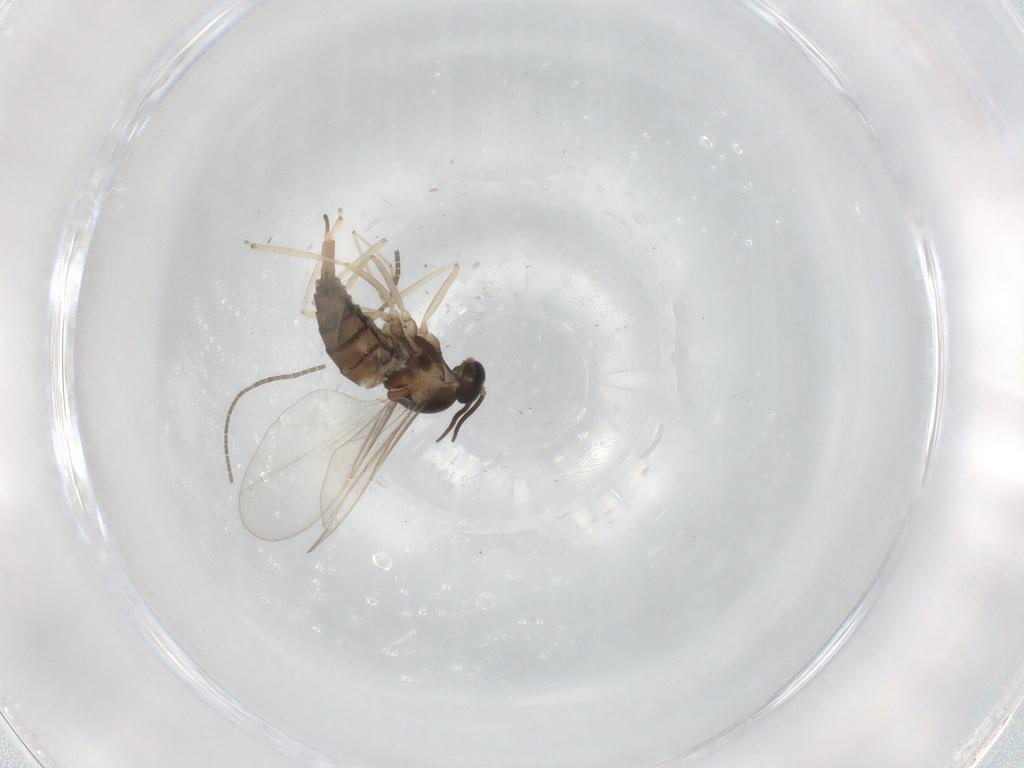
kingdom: Animalia
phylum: Arthropoda
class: Insecta
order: Diptera
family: Cecidomyiidae
